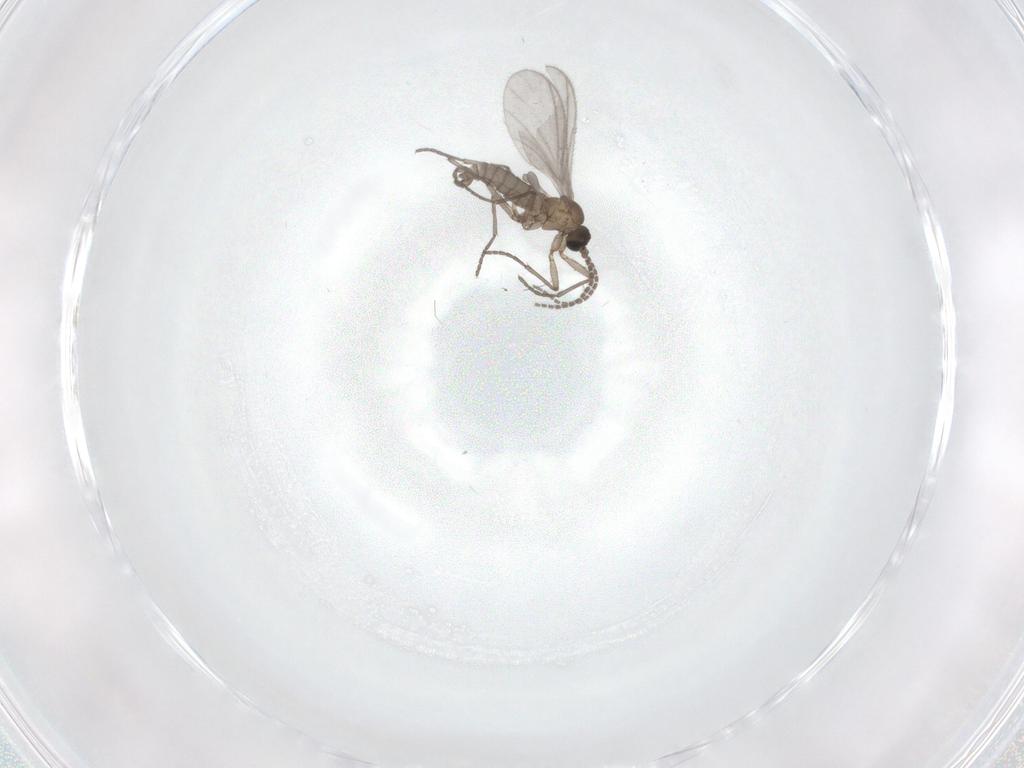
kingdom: Animalia
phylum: Arthropoda
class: Insecta
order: Diptera
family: Sciaridae
